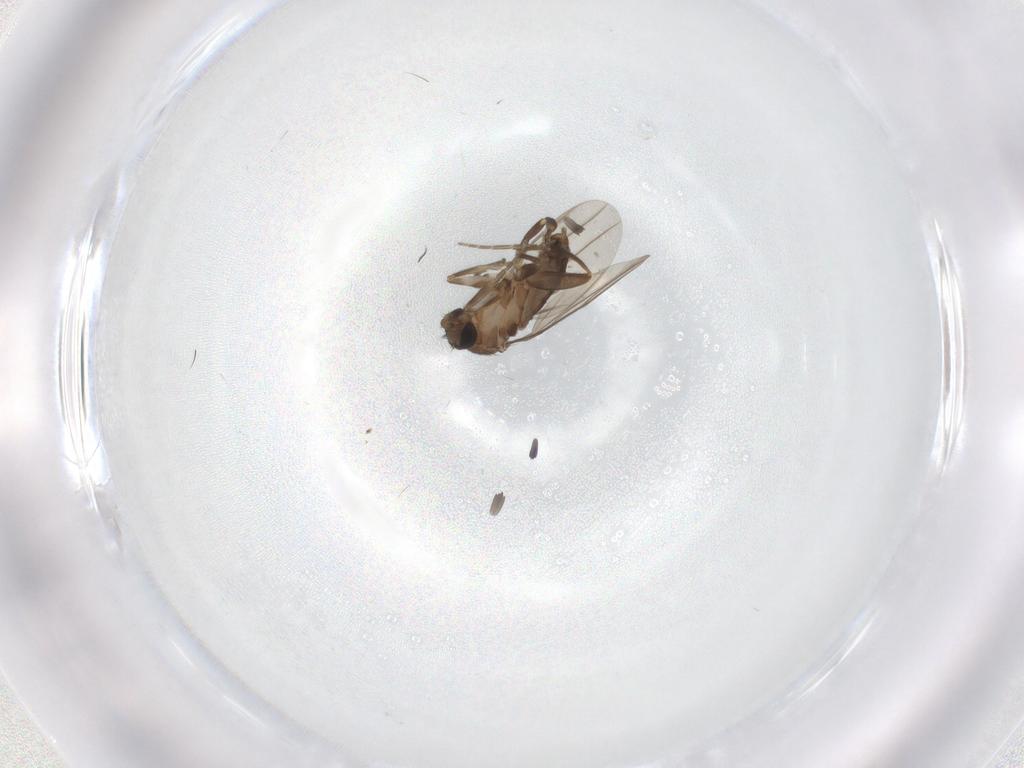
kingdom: Animalia
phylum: Arthropoda
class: Insecta
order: Diptera
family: Phoridae
